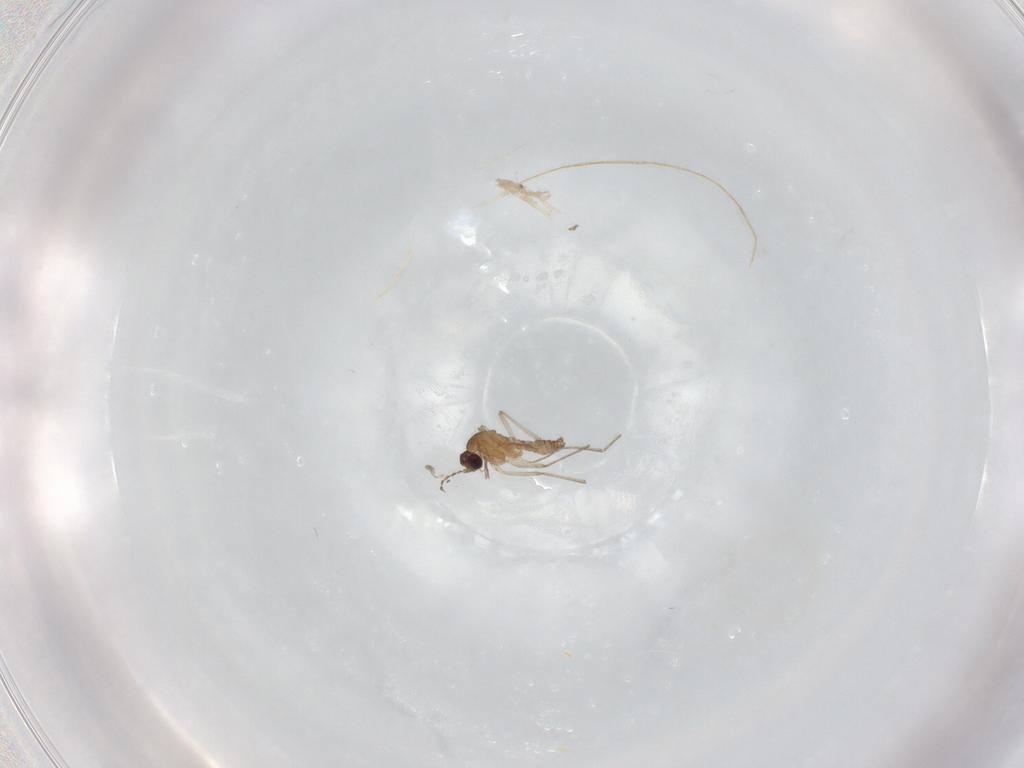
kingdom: Animalia
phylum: Arthropoda
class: Insecta
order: Diptera
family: Cecidomyiidae
